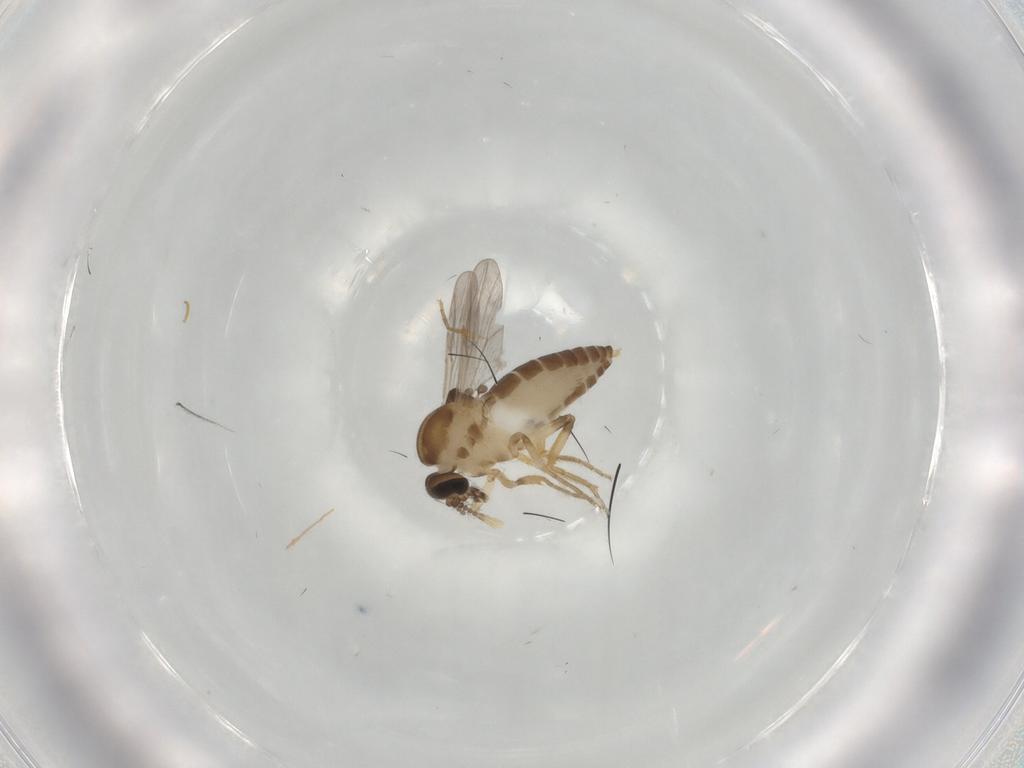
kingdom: Animalia
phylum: Arthropoda
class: Insecta
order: Diptera
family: Ceratopogonidae
